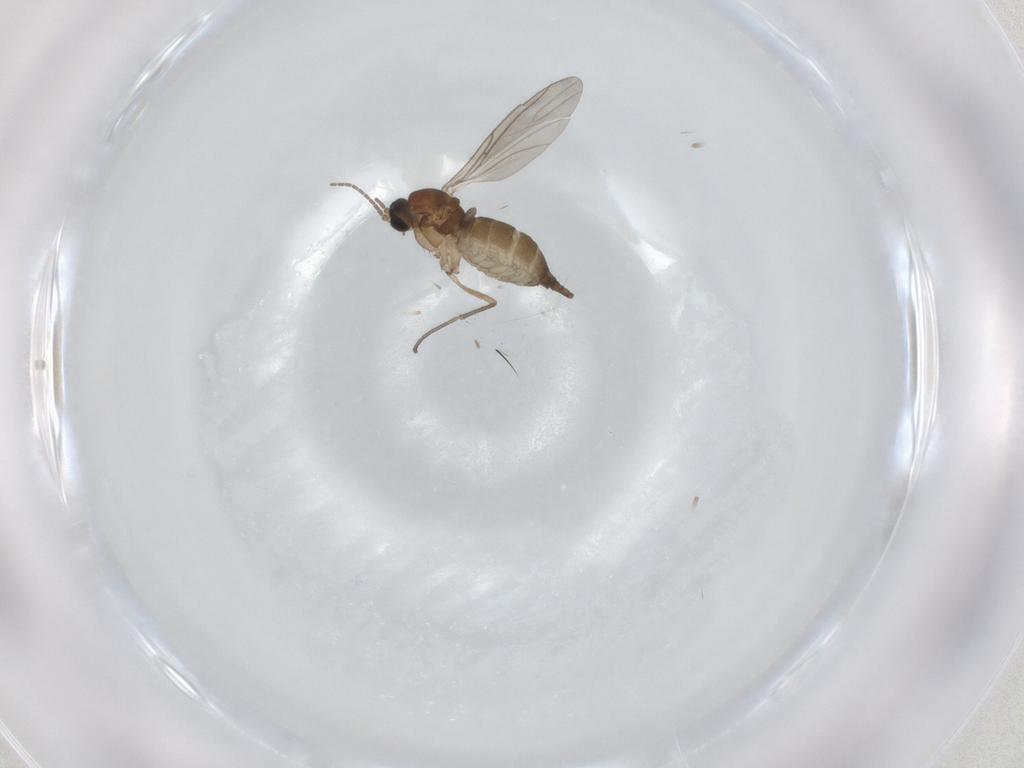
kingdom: Animalia
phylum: Arthropoda
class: Insecta
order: Diptera
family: Sciaridae
